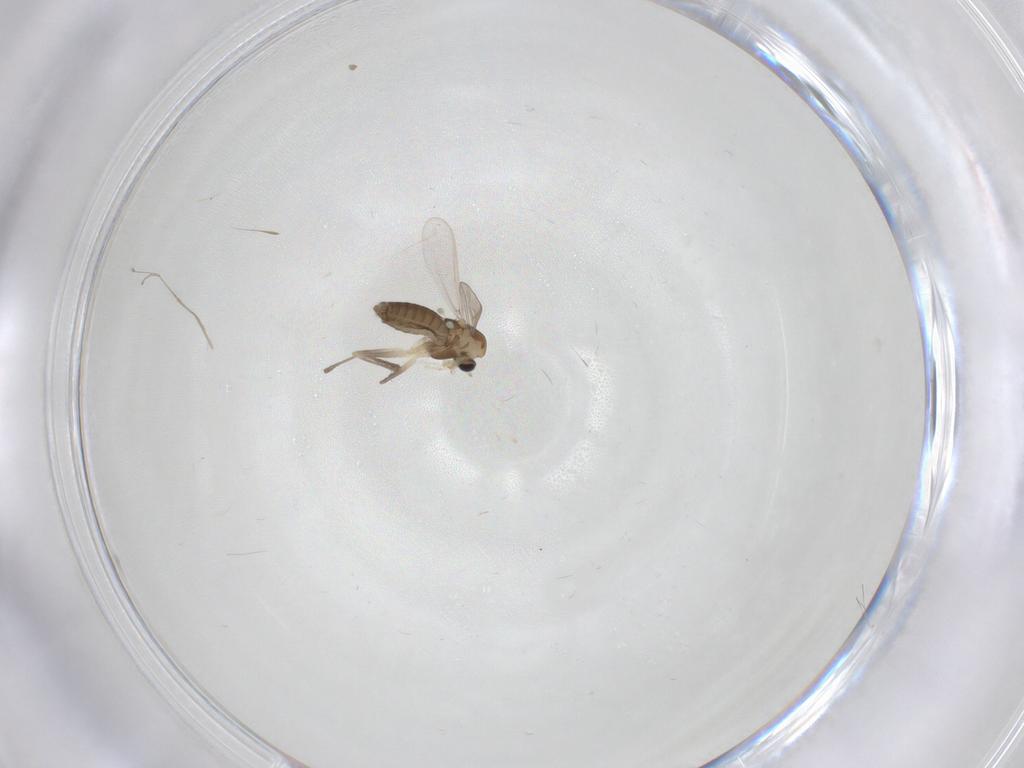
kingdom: Animalia
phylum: Arthropoda
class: Insecta
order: Diptera
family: Cecidomyiidae
